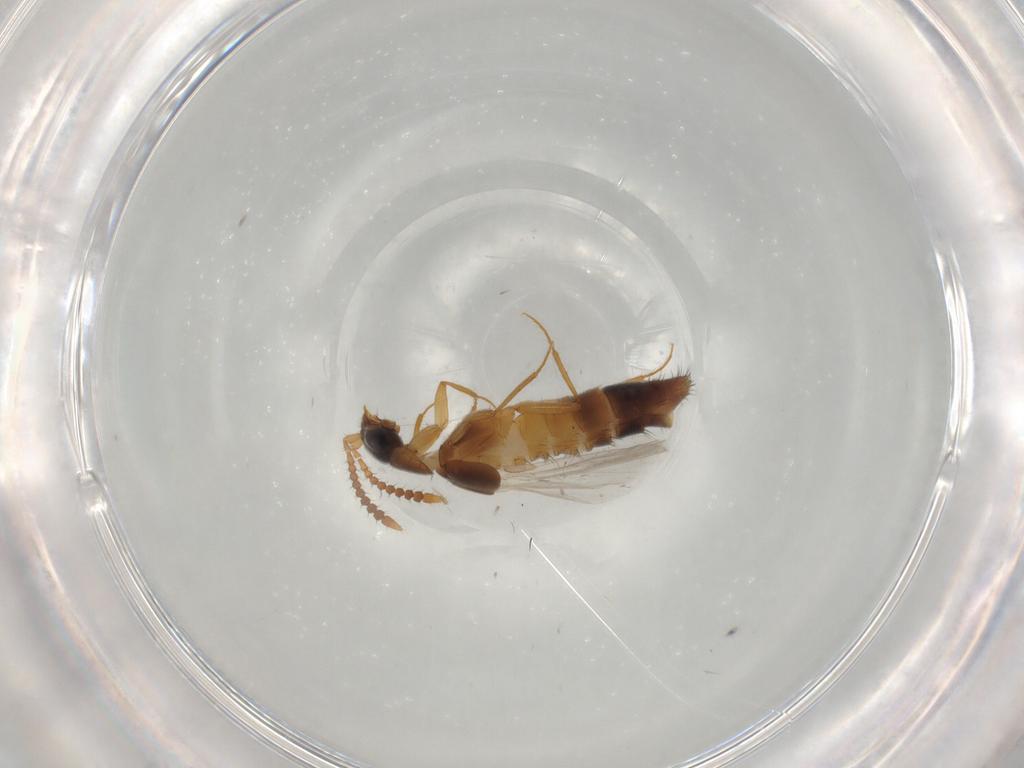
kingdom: Animalia
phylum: Arthropoda
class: Insecta
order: Coleoptera
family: Staphylinidae
